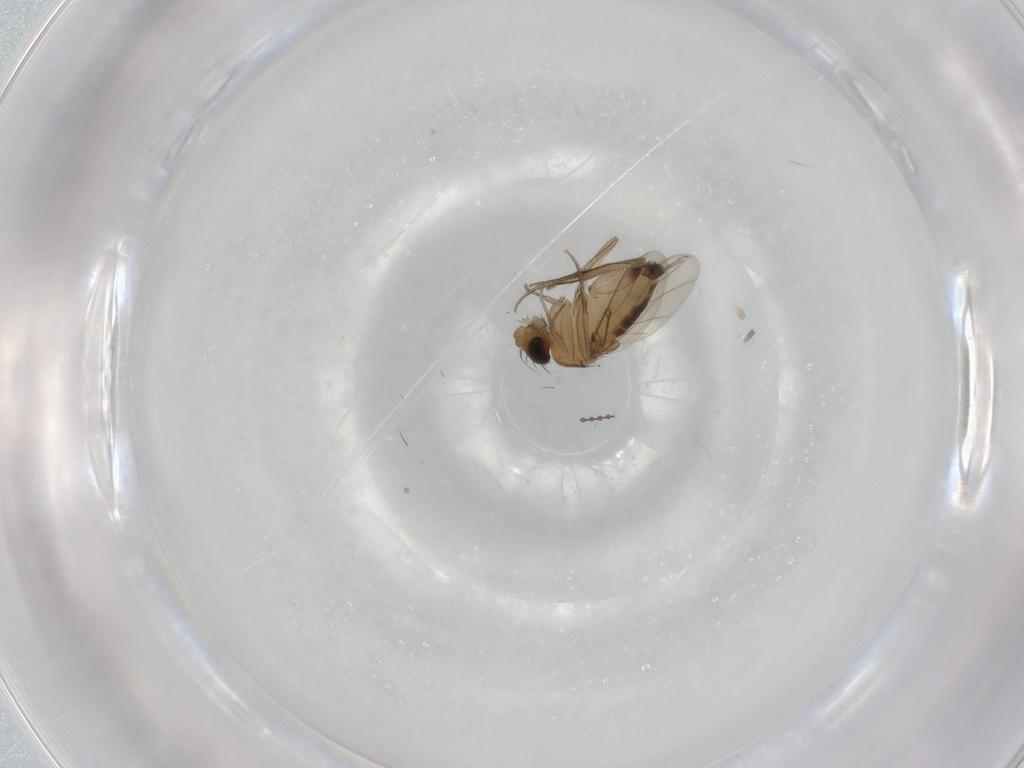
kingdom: Animalia
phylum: Arthropoda
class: Insecta
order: Diptera
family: Phoridae
